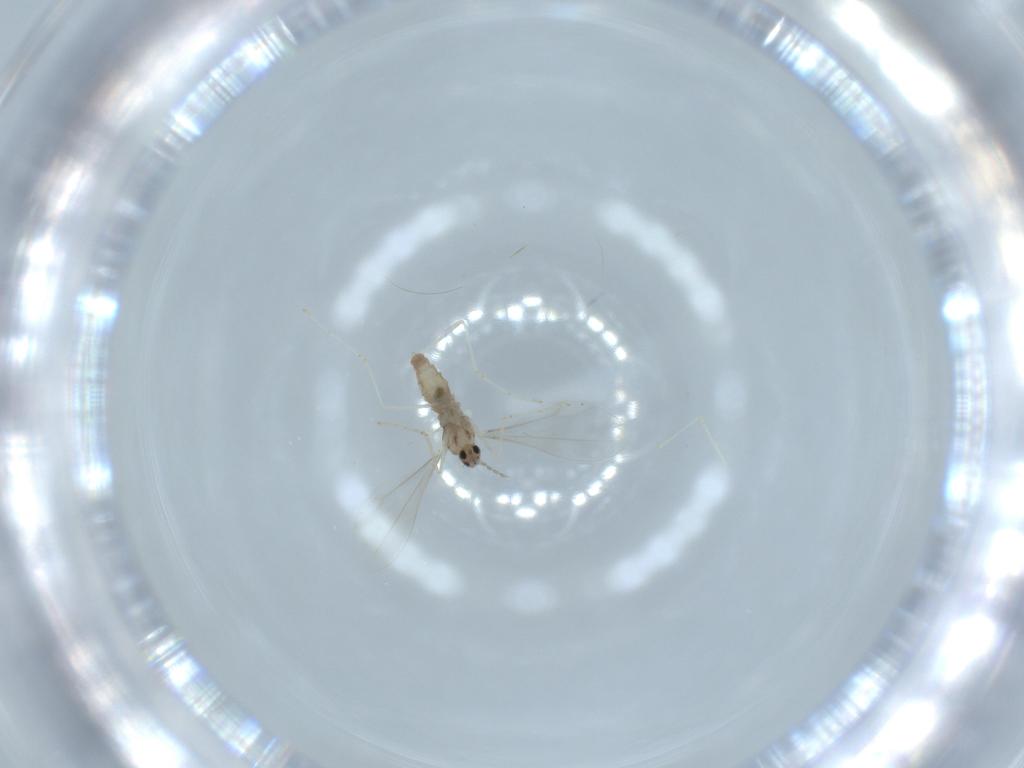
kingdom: Animalia
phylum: Arthropoda
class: Insecta
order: Diptera
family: Cecidomyiidae
